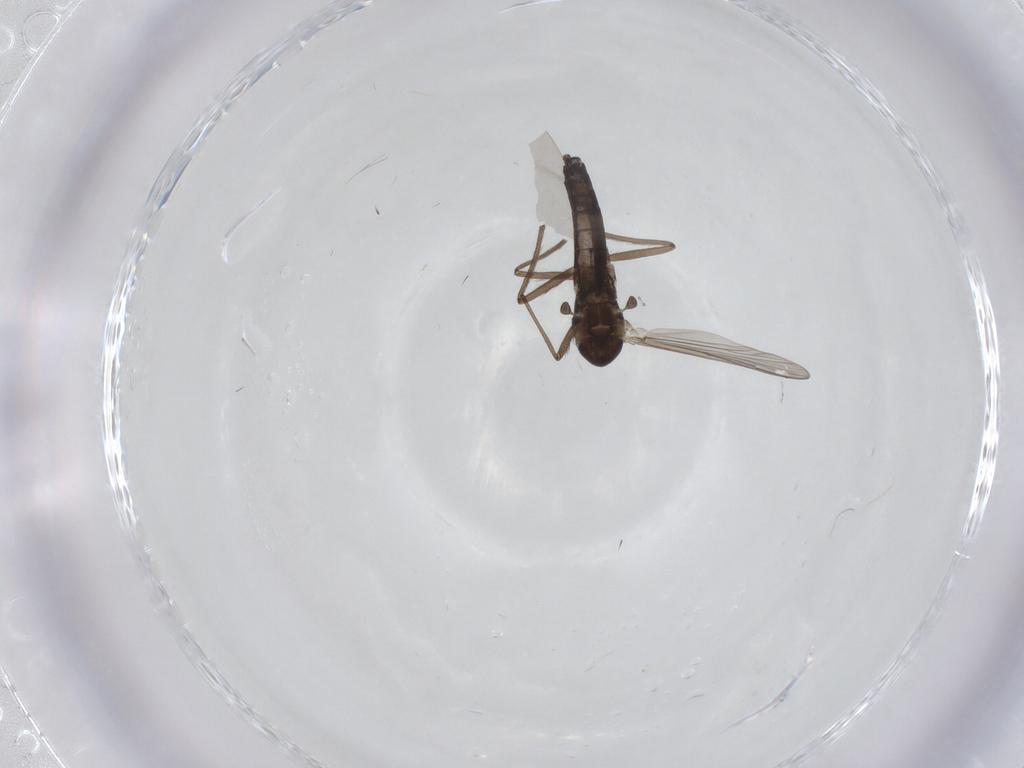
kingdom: Animalia
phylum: Arthropoda
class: Insecta
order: Diptera
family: Chironomidae
